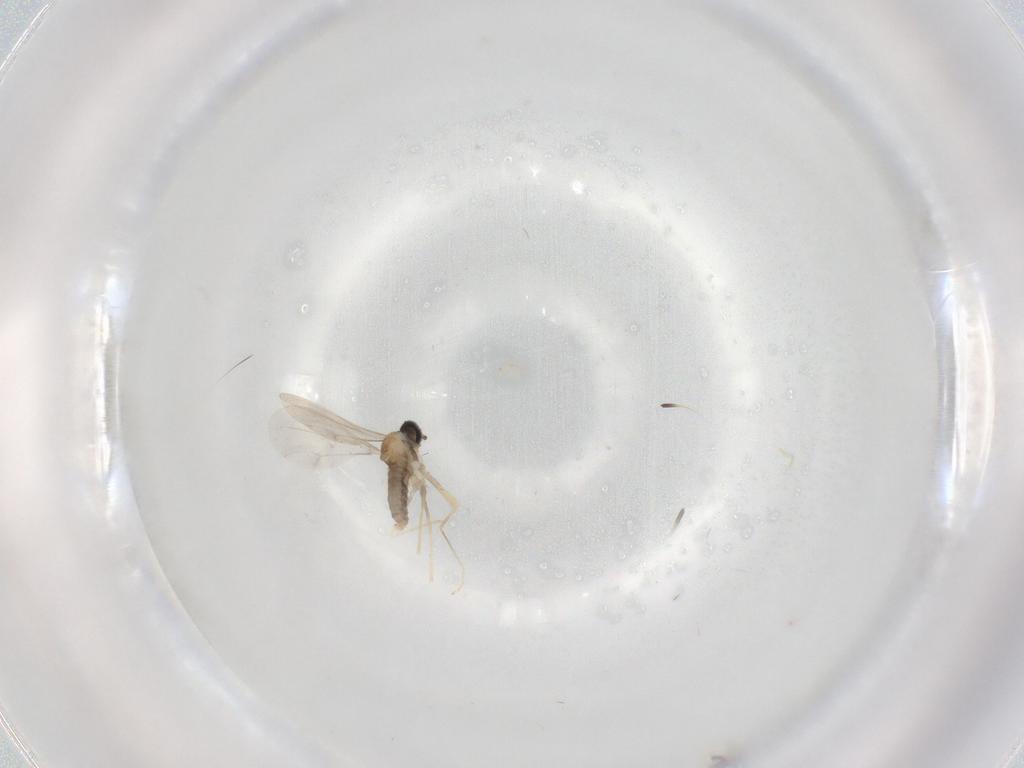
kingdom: Animalia
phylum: Arthropoda
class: Insecta
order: Diptera
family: Cecidomyiidae
